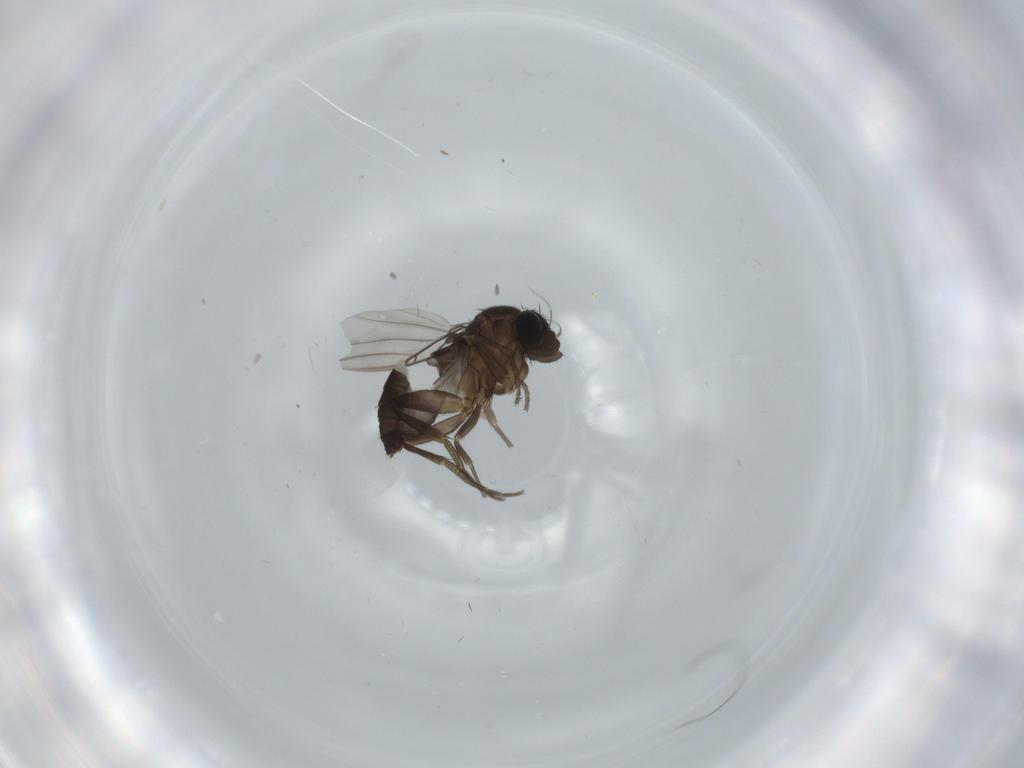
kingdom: Animalia
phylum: Arthropoda
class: Insecta
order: Diptera
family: Phoridae
